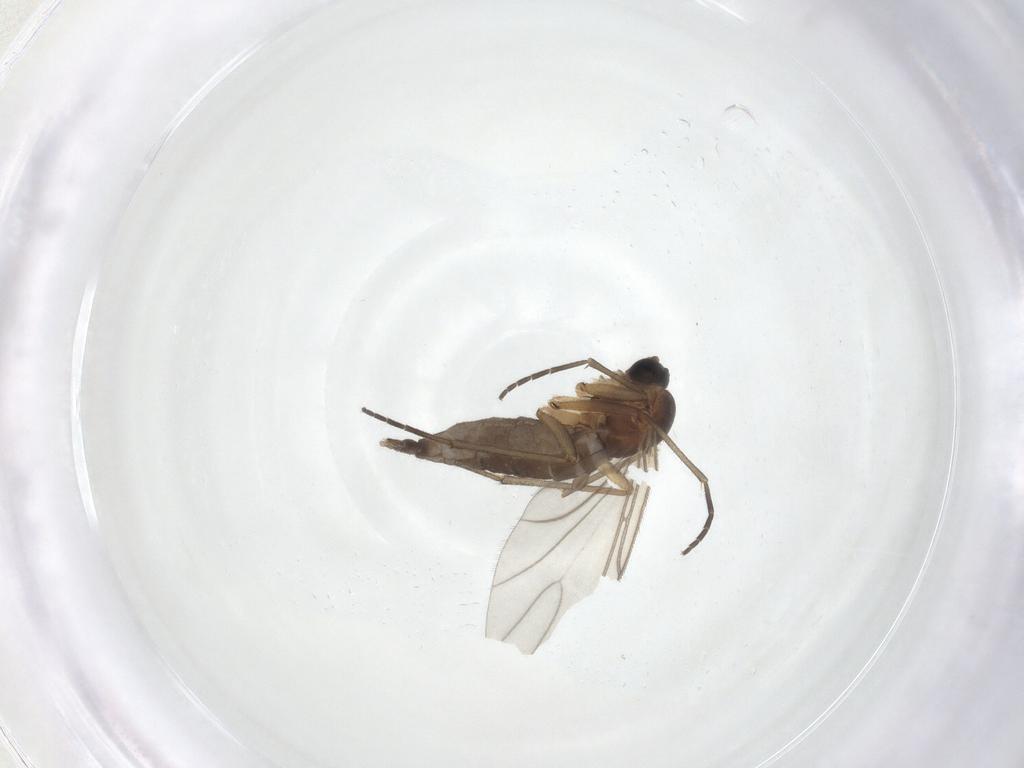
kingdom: Animalia
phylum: Arthropoda
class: Insecta
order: Diptera
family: Sciaridae
